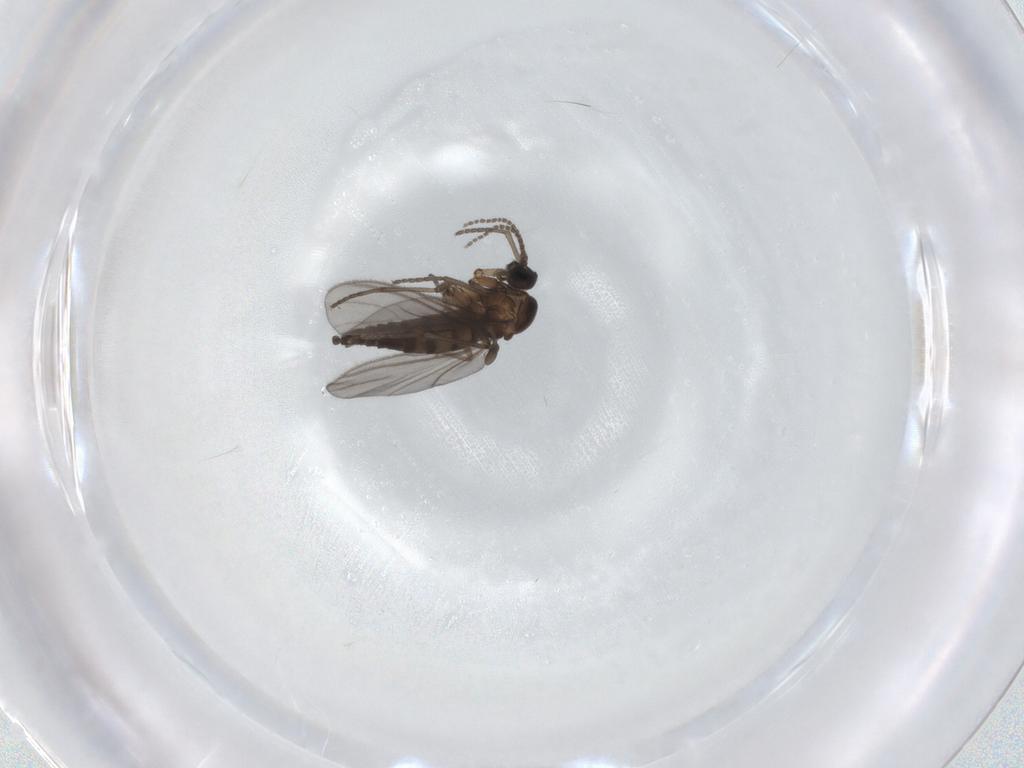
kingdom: Animalia
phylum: Arthropoda
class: Insecta
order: Diptera
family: Sciaridae
